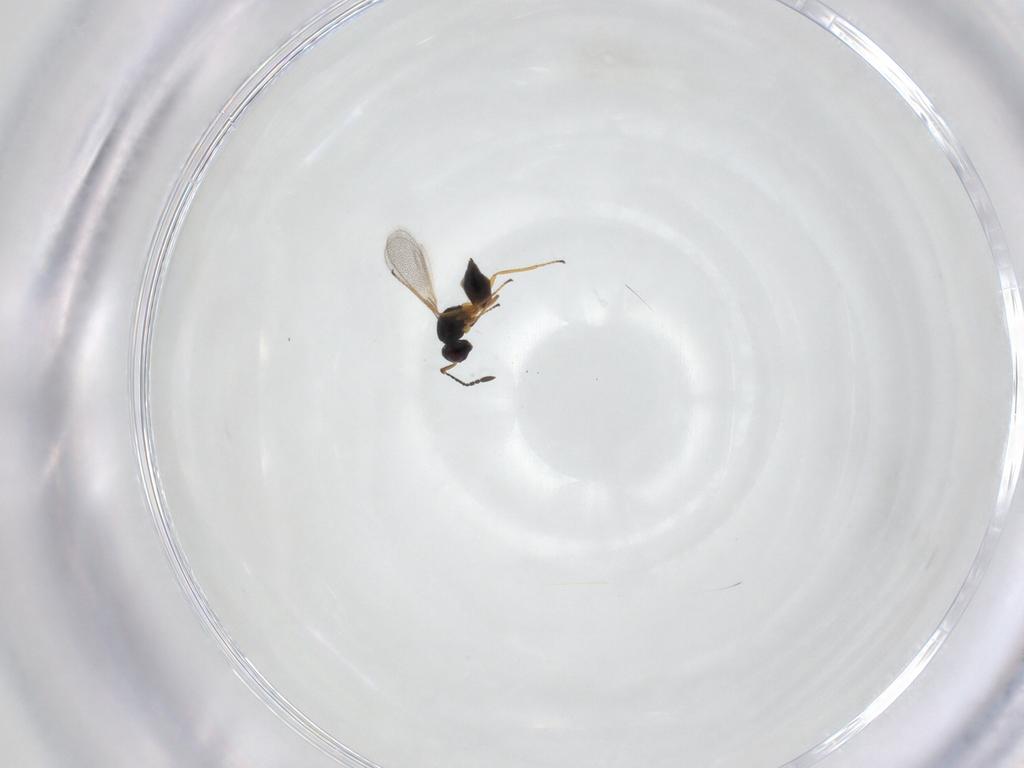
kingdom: Animalia
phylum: Arthropoda
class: Insecta
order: Hymenoptera
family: Mymaridae
